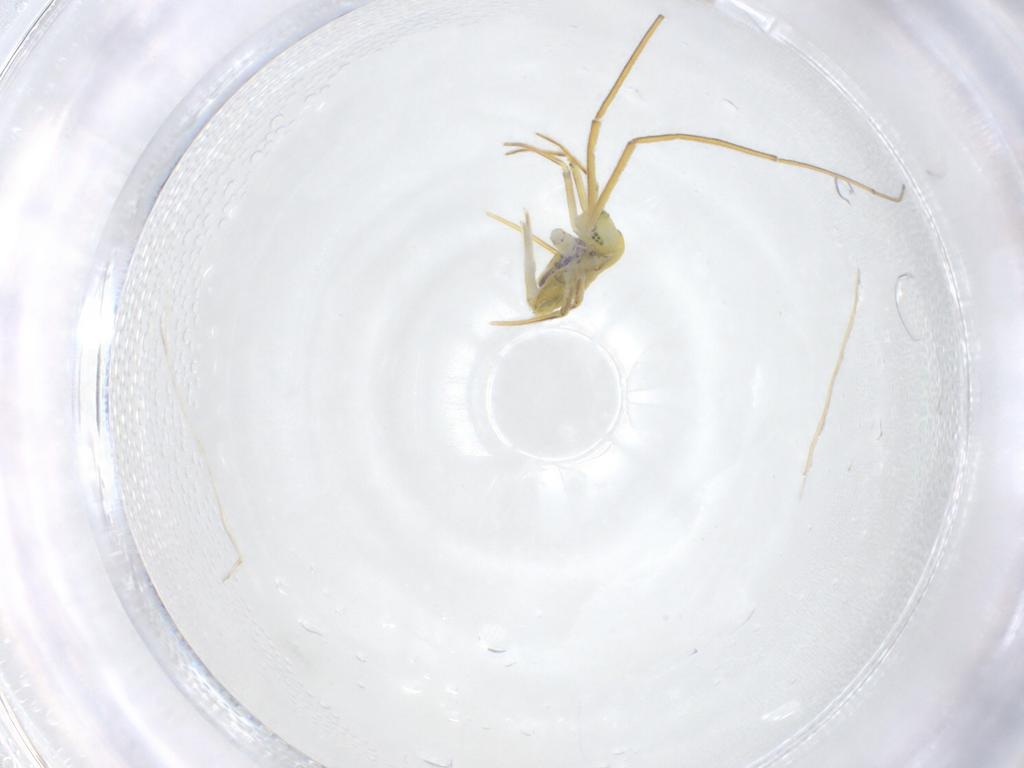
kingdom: Animalia
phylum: Arthropoda
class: Collembola
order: Entomobryomorpha
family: Entomobryidae
